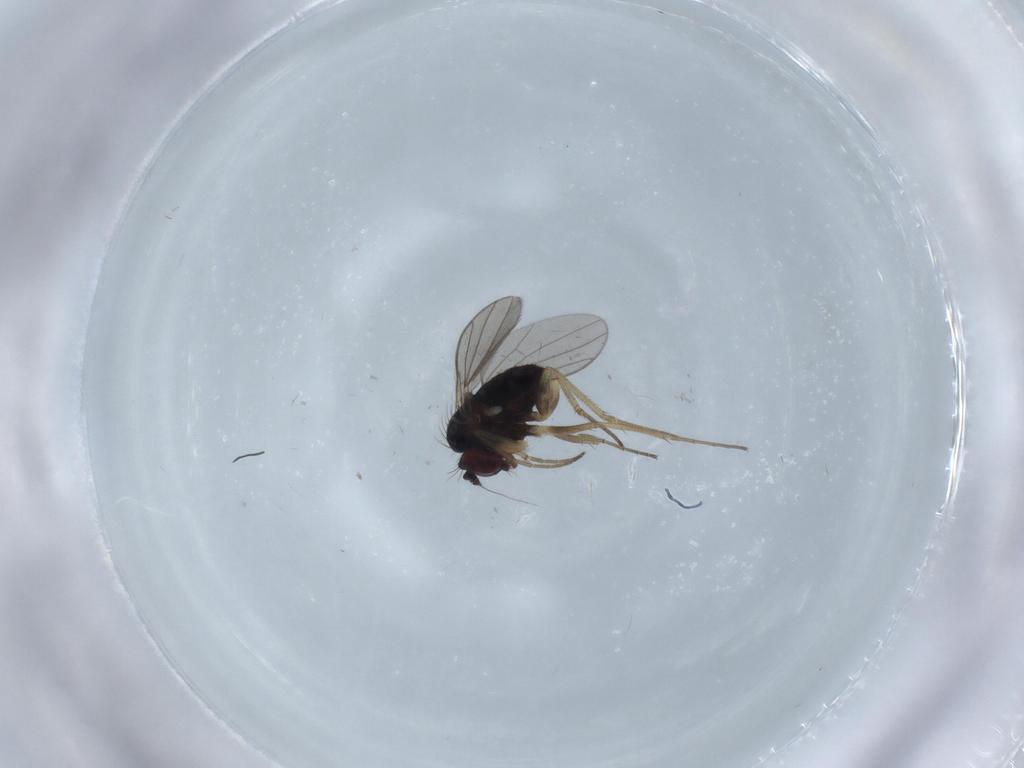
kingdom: Animalia
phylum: Arthropoda
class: Insecta
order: Diptera
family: Dolichopodidae
